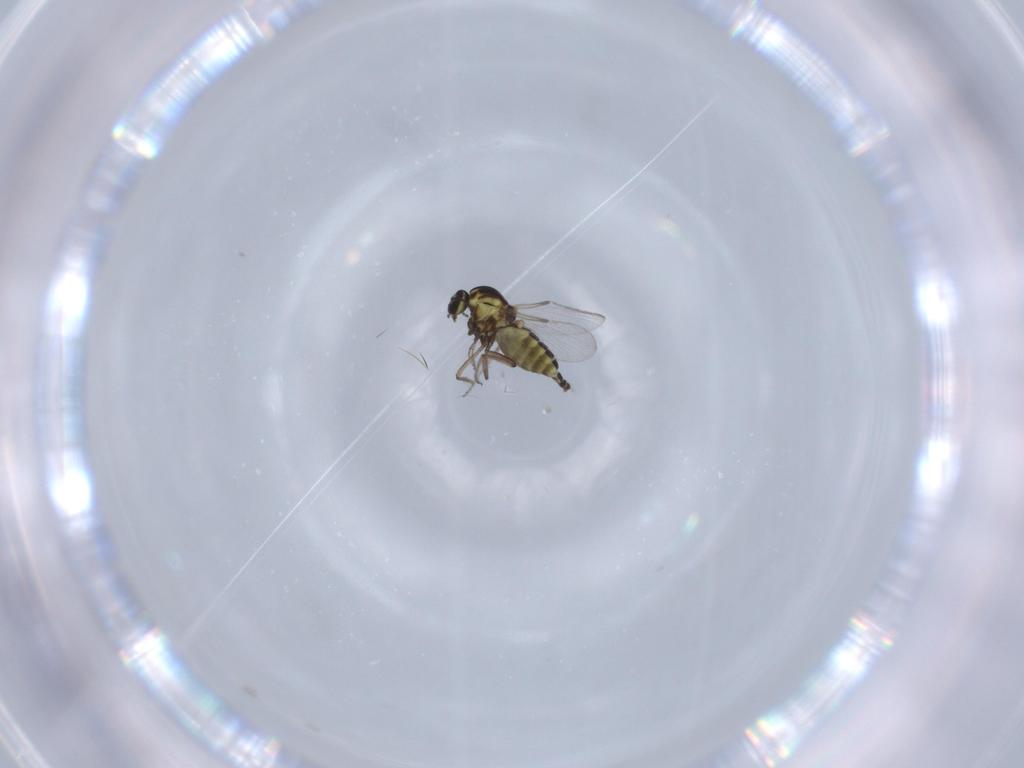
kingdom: Animalia
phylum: Arthropoda
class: Insecta
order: Diptera
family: Ceratopogonidae
